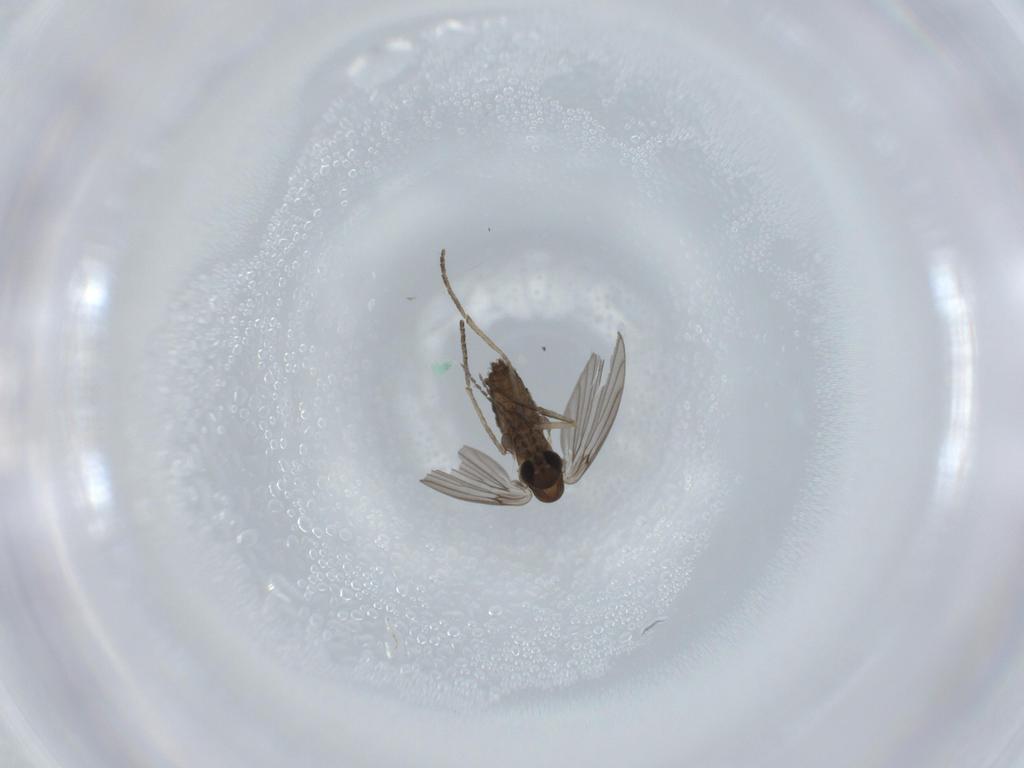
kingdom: Animalia
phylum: Arthropoda
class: Insecta
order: Diptera
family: Psychodidae
